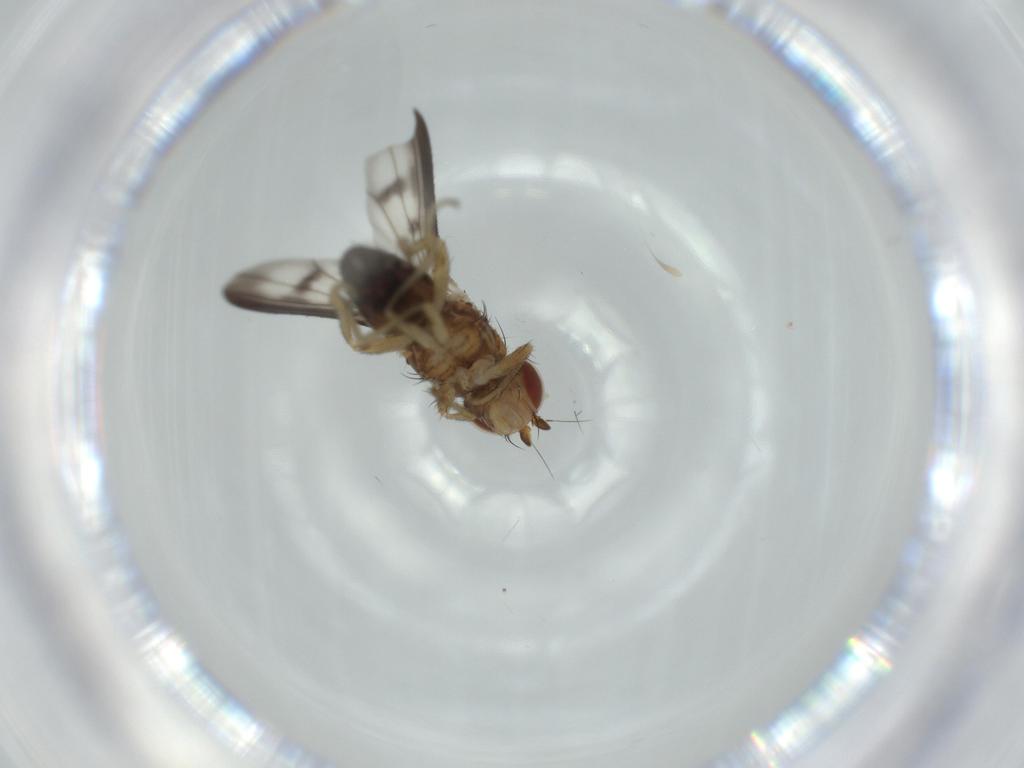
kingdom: Animalia
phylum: Arthropoda
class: Insecta
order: Diptera
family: Heleomyzidae
